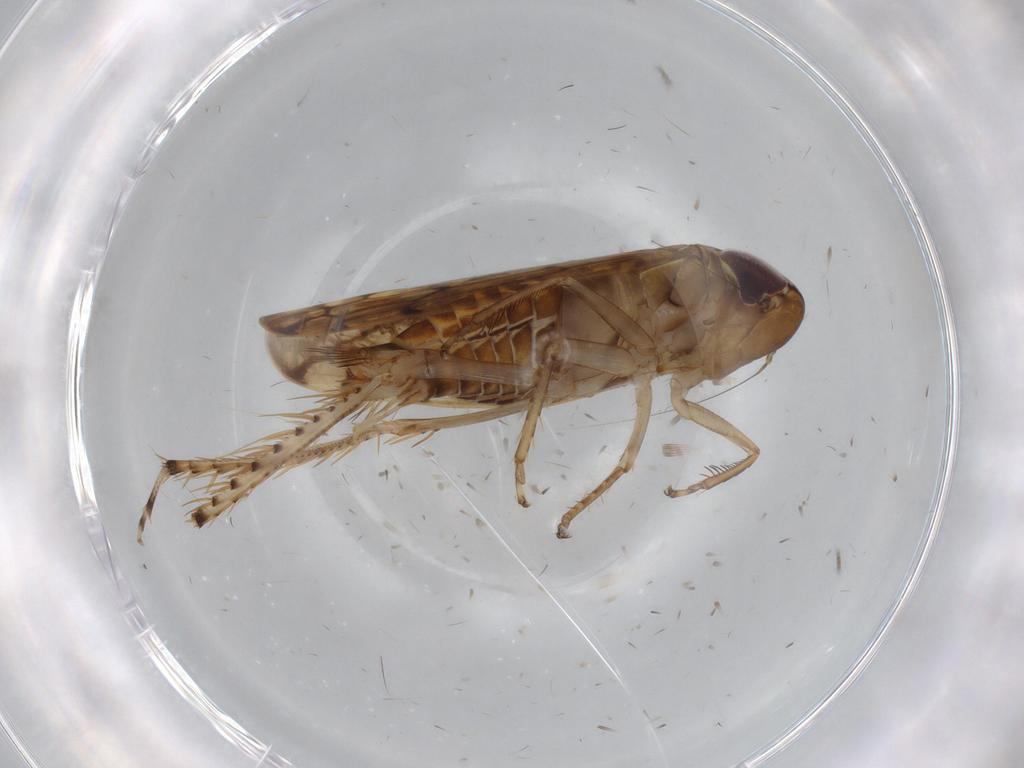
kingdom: Animalia
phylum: Arthropoda
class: Insecta
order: Hemiptera
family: Cicadellidae
